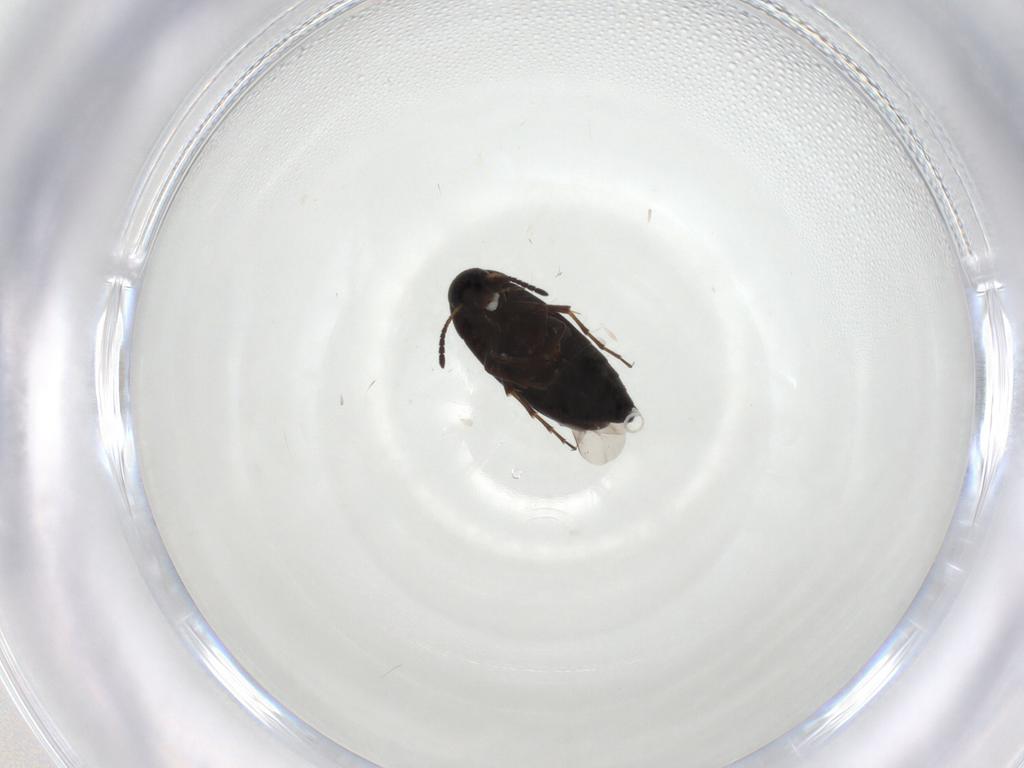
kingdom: Animalia
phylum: Arthropoda
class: Insecta
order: Coleoptera
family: Scraptiidae
